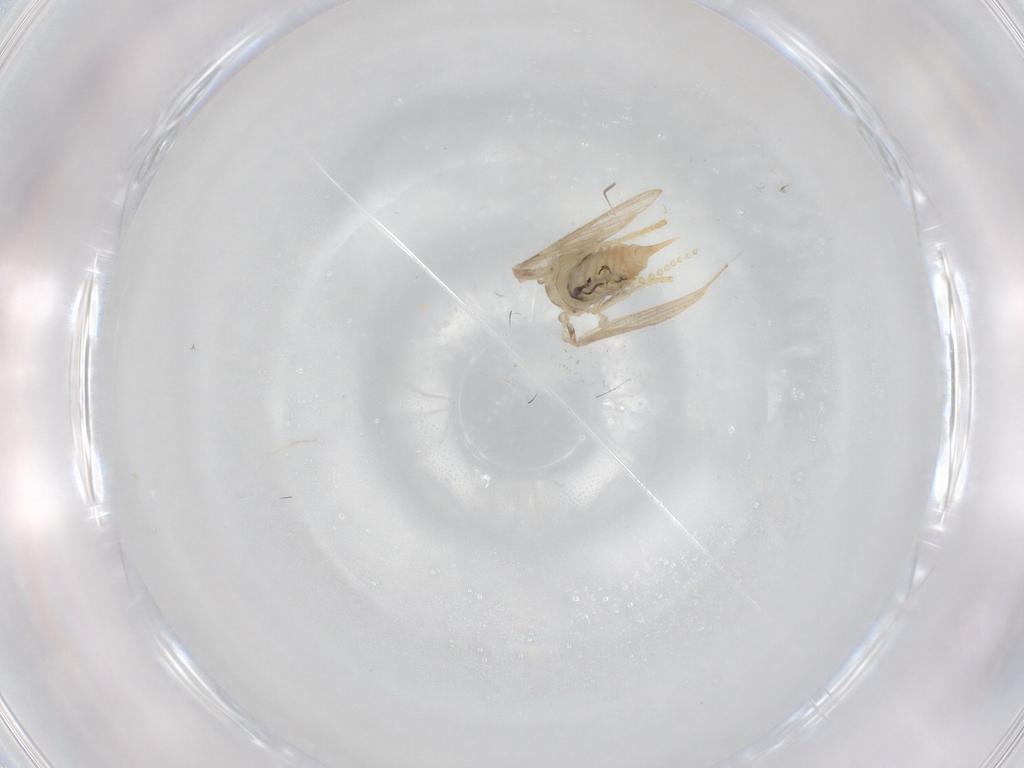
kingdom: Animalia
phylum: Arthropoda
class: Insecta
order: Diptera
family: Psychodidae
